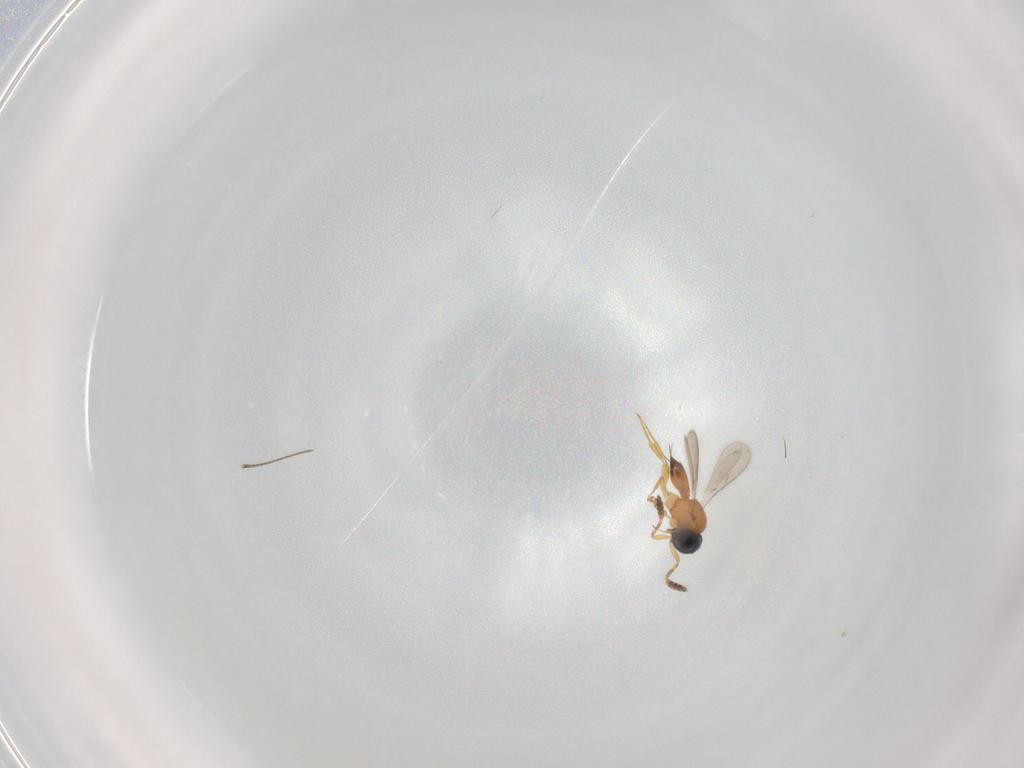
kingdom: Animalia
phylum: Arthropoda
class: Insecta
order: Hymenoptera
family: Scelionidae
